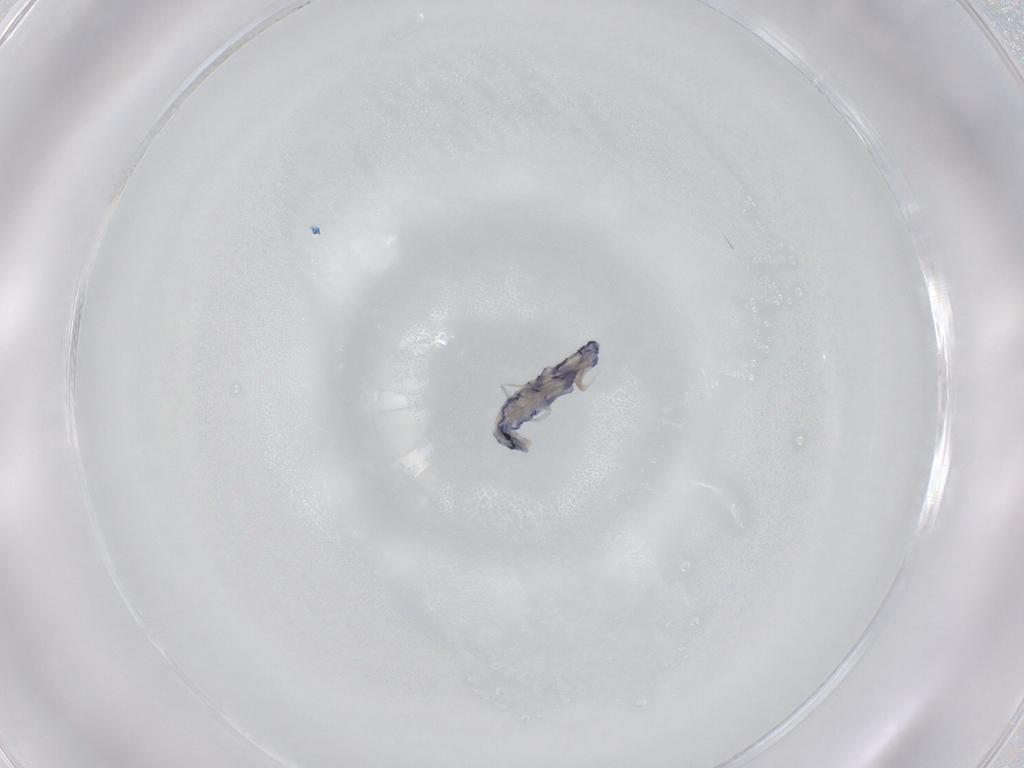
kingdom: Animalia
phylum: Arthropoda
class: Collembola
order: Entomobryomorpha
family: Entomobryidae
